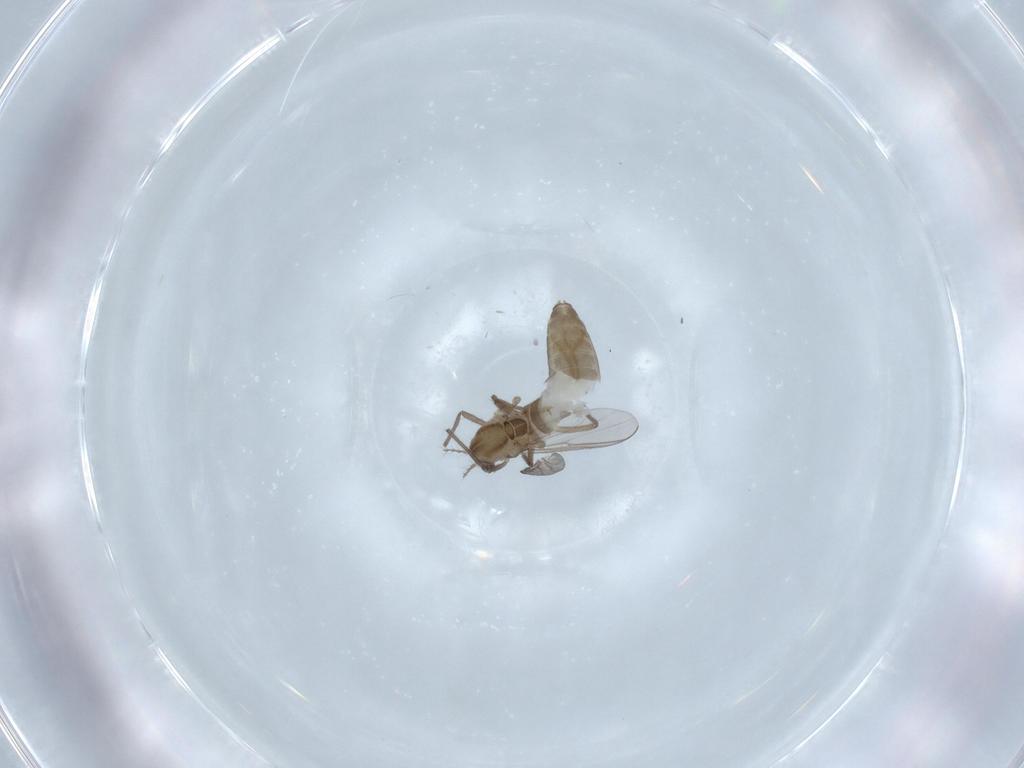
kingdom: Animalia
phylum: Arthropoda
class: Insecta
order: Diptera
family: Chironomidae
